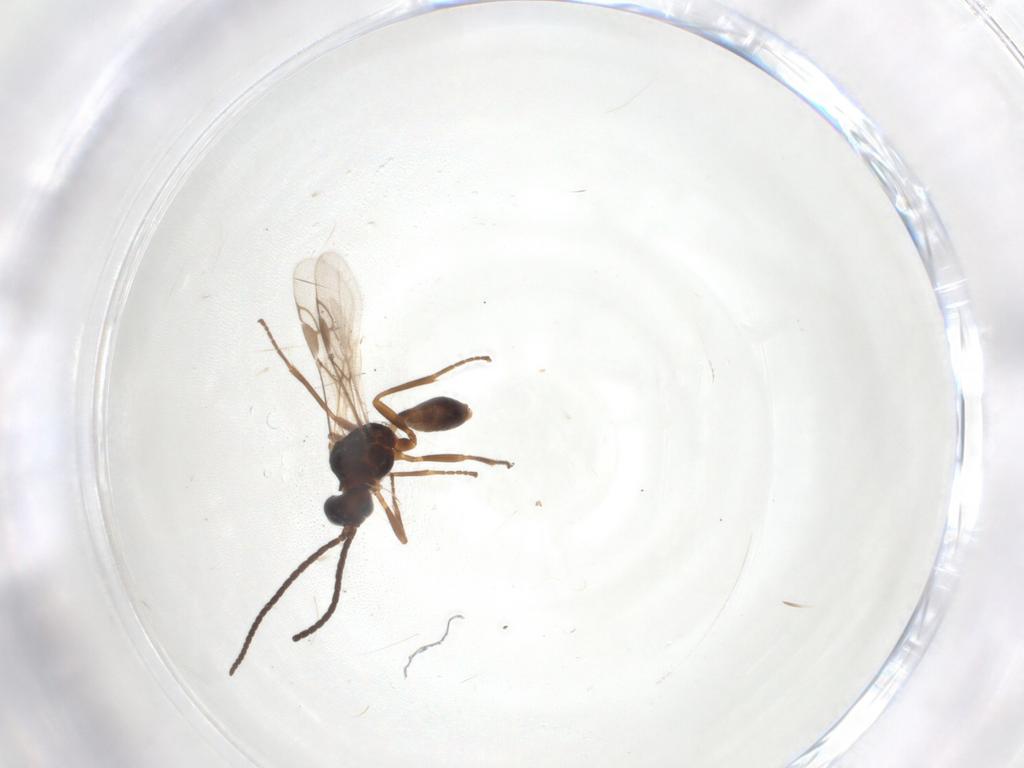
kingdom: Animalia
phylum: Arthropoda
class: Insecta
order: Hymenoptera
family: Braconidae
